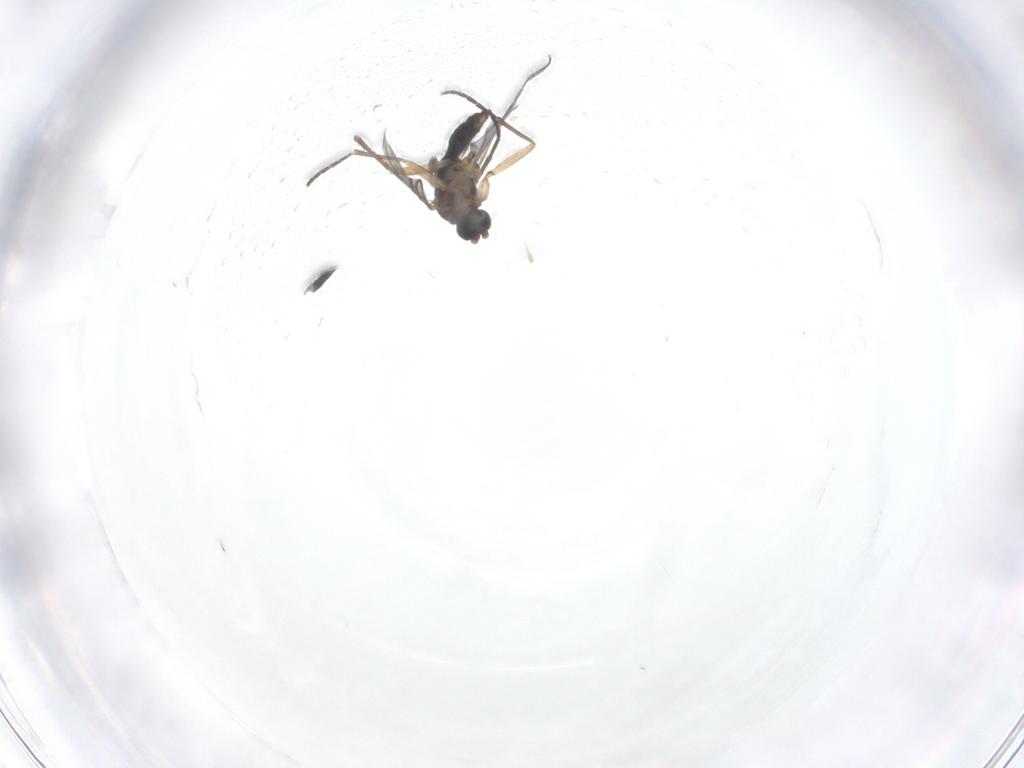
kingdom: Animalia
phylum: Arthropoda
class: Insecta
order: Diptera
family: Sciaridae
